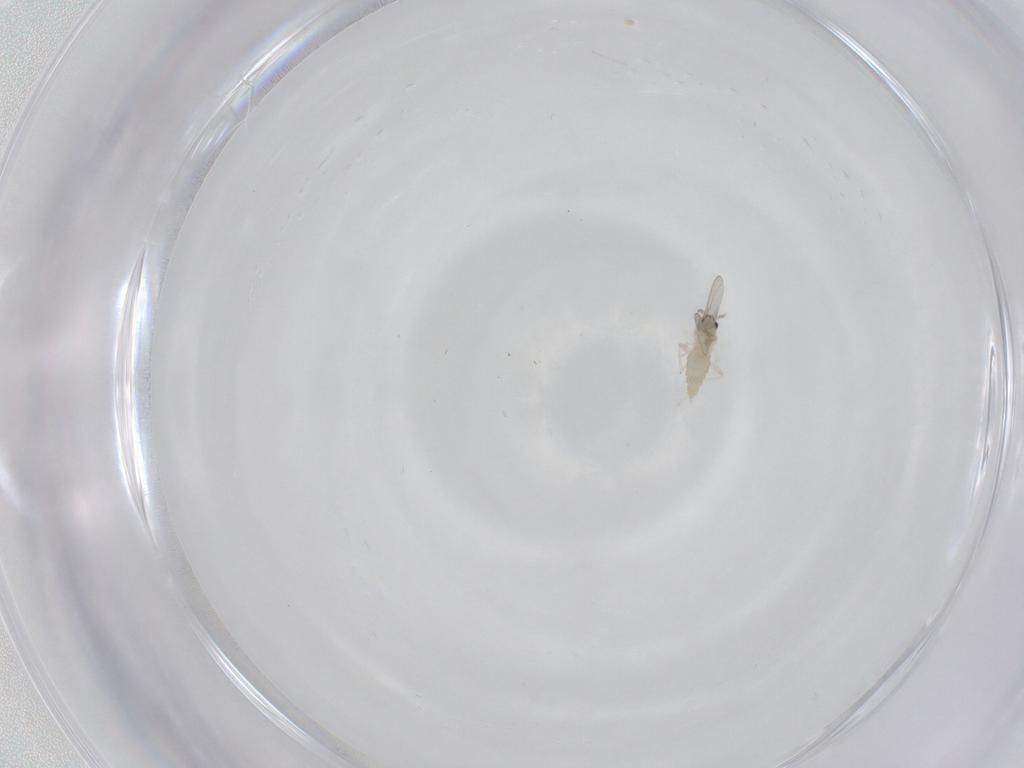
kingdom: Animalia
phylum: Arthropoda
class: Insecta
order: Diptera
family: Cecidomyiidae
